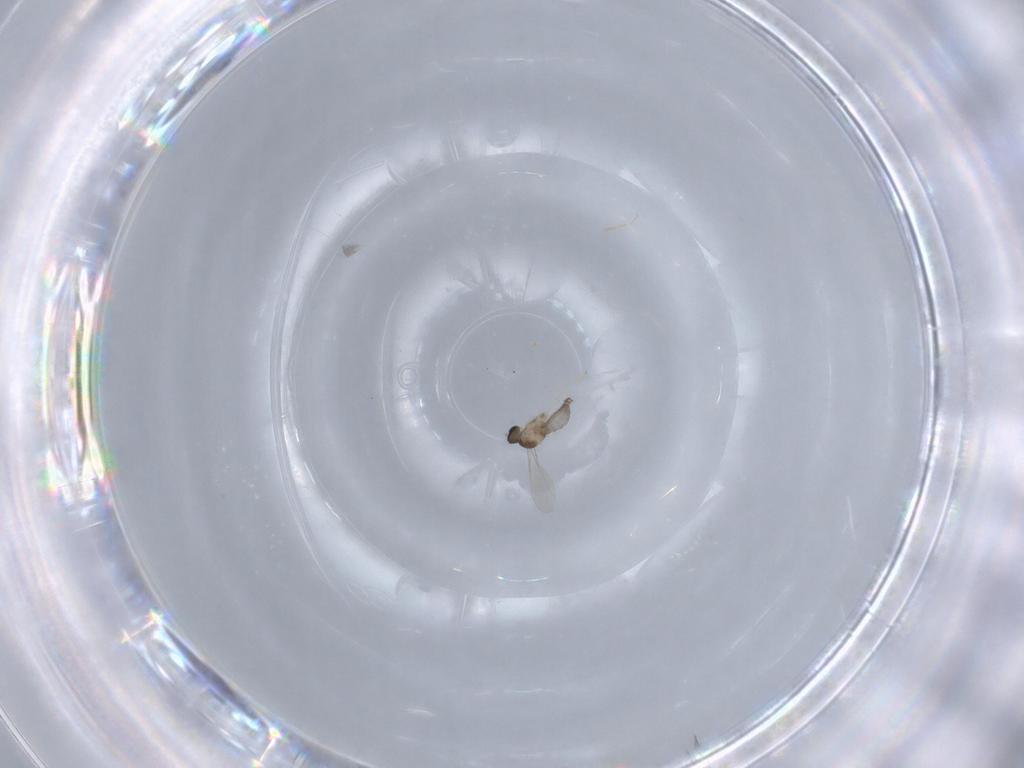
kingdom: Animalia
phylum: Arthropoda
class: Insecta
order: Diptera
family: Cecidomyiidae
